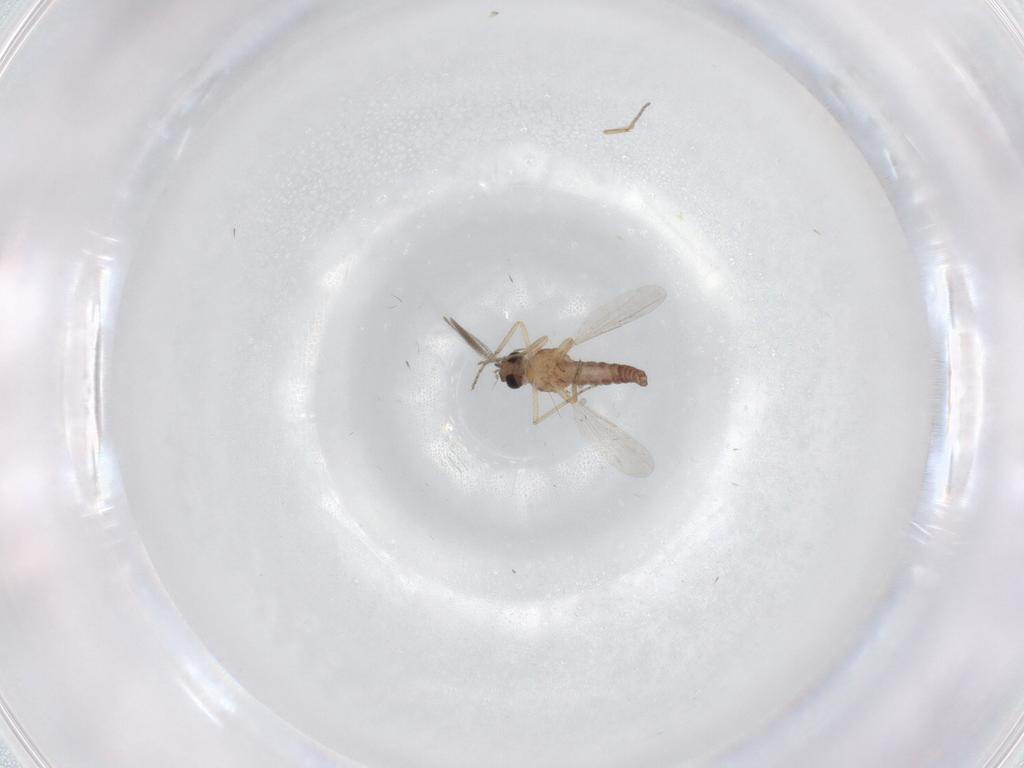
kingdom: Animalia
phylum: Arthropoda
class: Insecta
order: Diptera
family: Ceratopogonidae
